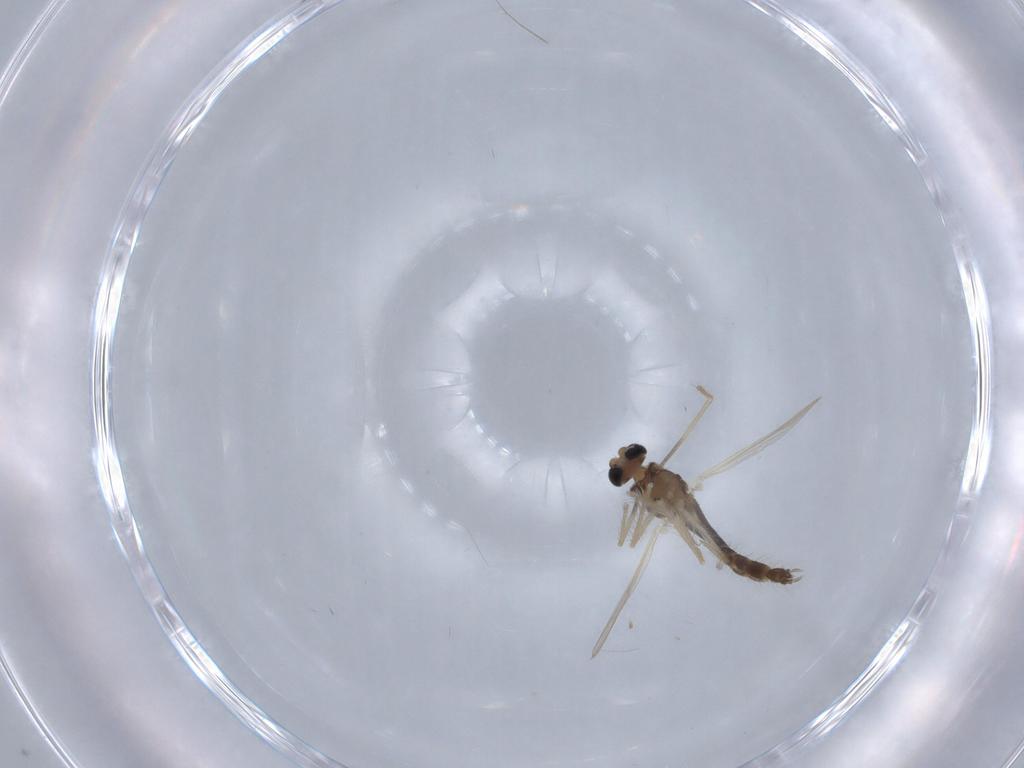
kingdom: Animalia
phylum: Arthropoda
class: Insecta
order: Diptera
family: Chironomidae
